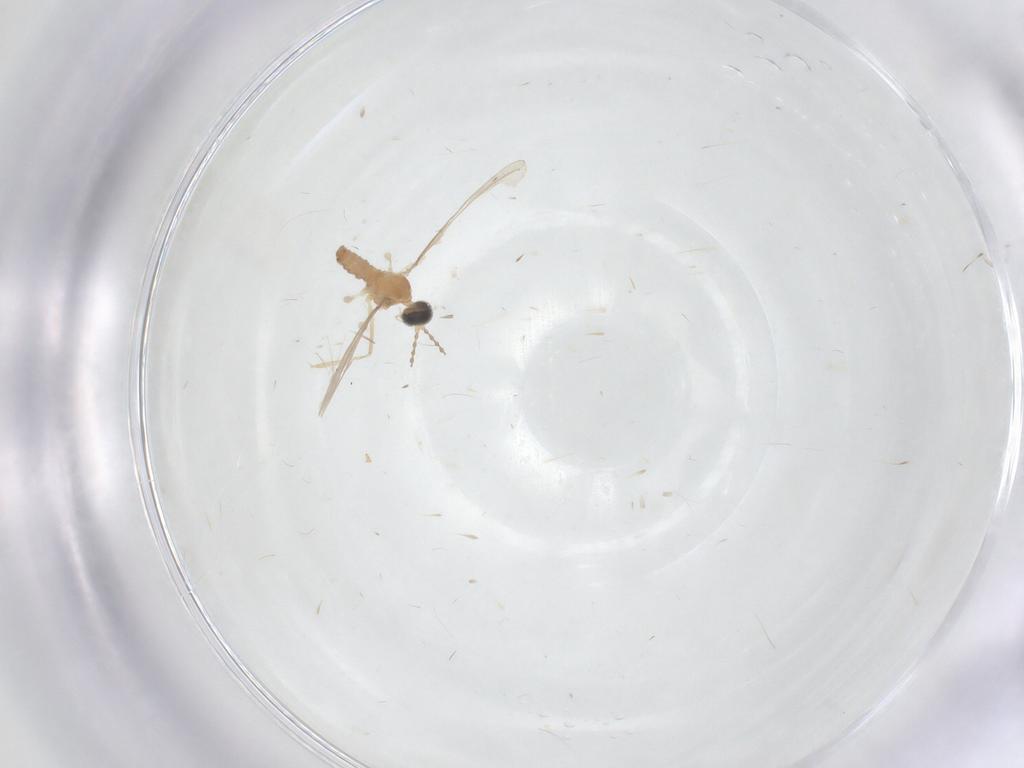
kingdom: Animalia
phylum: Arthropoda
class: Insecta
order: Diptera
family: Cecidomyiidae
